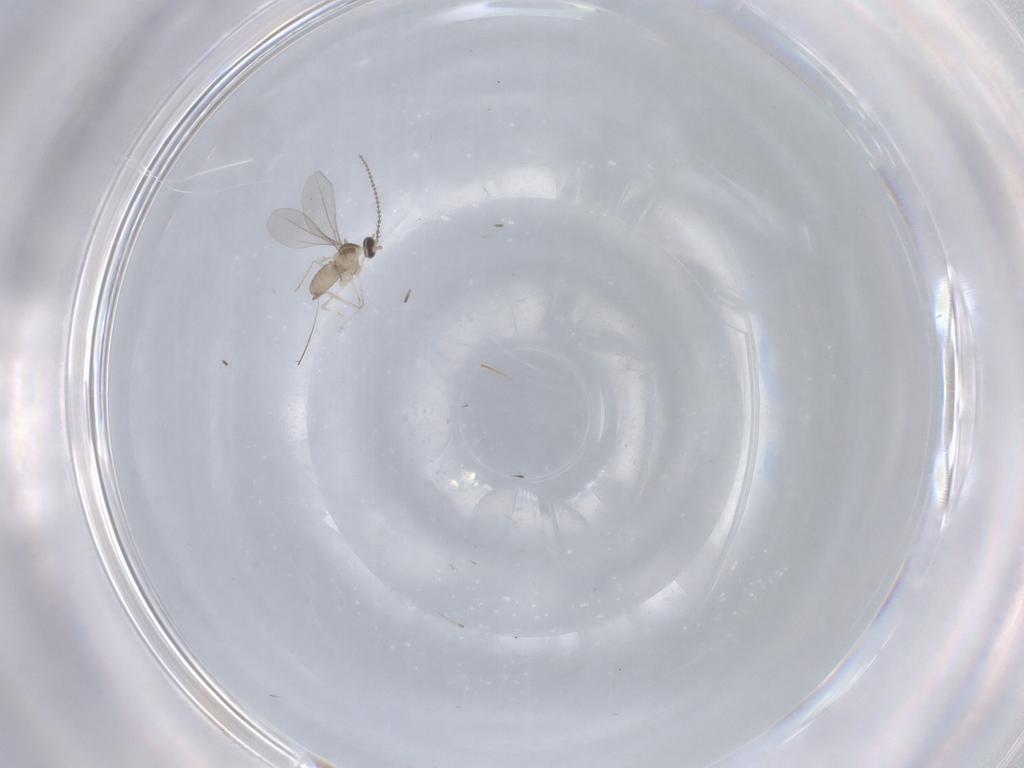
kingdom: Animalia
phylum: Arthropoda
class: Insecta
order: Diptera
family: Cecidomyiidae
